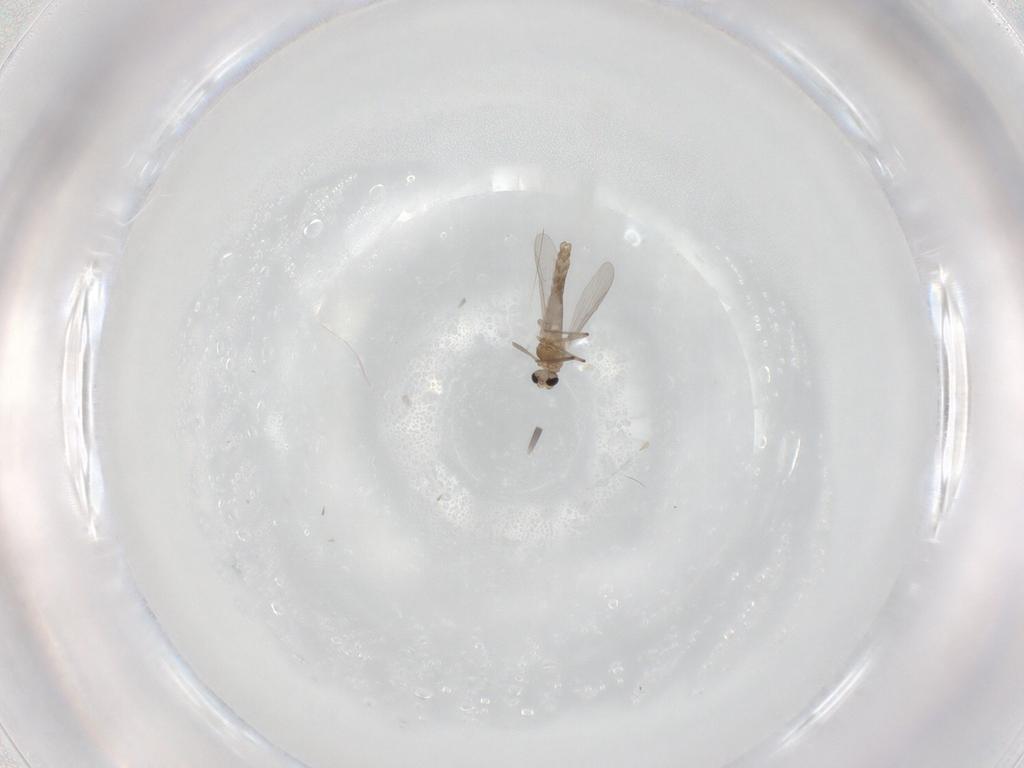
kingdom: Animalia
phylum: Arthropoda
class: Insecta
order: Diptera
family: Chironomidae
